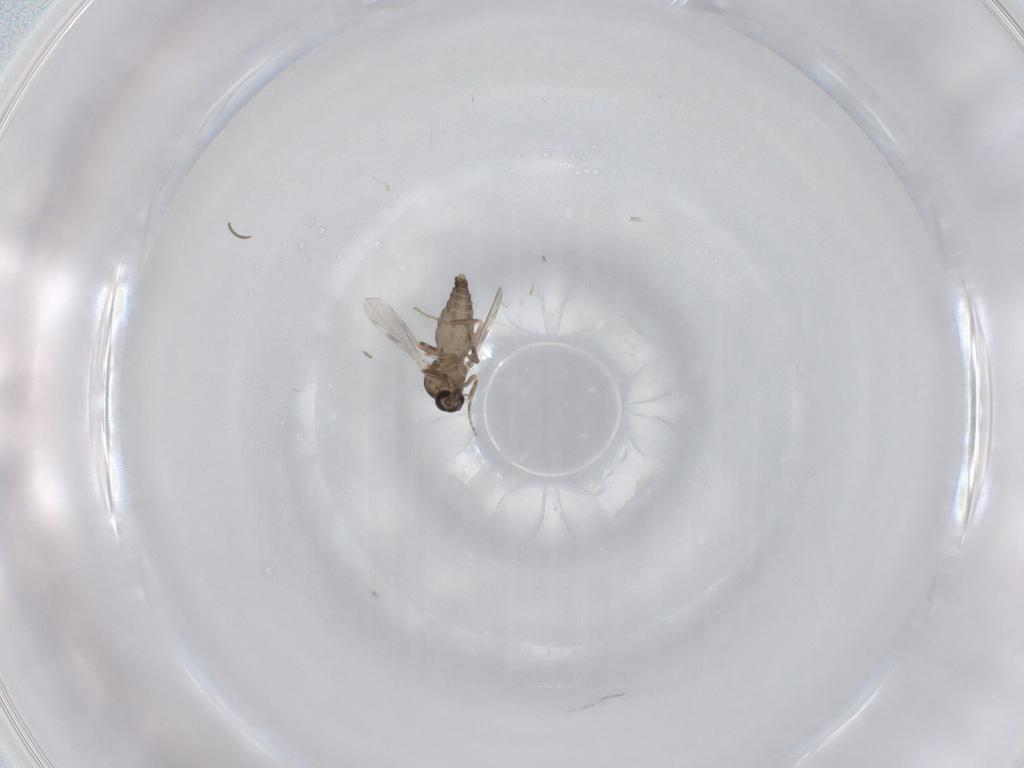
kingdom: Animalia
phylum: Arthropoda
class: Insecta
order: Diptera
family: Ceratopogonidae
